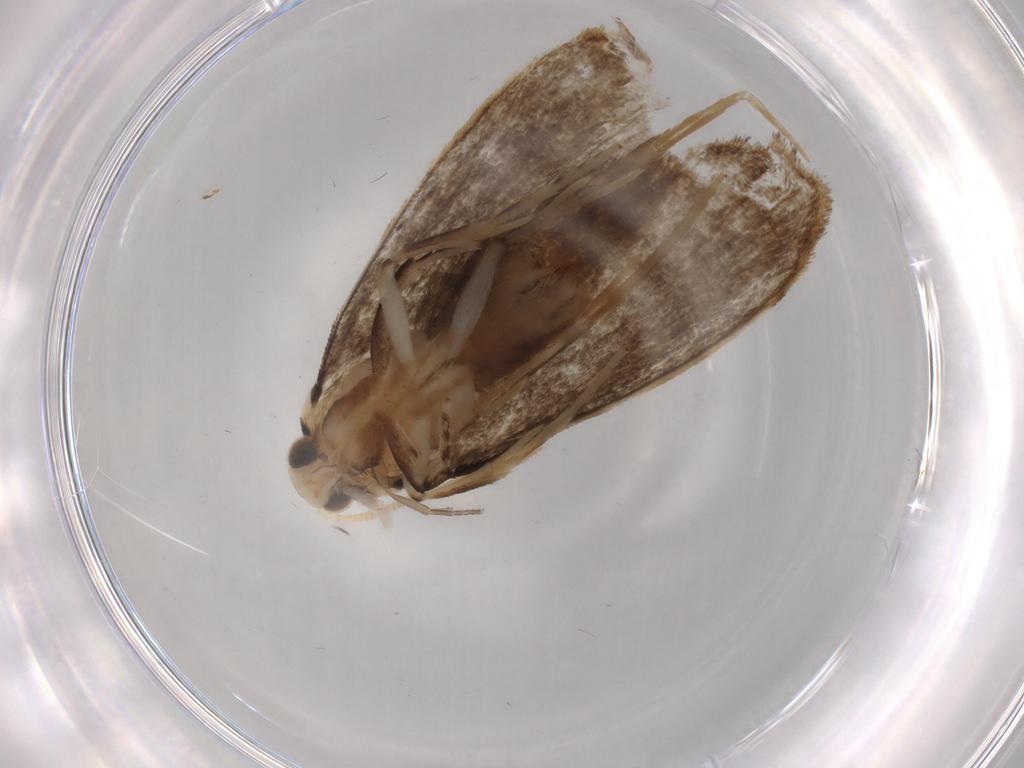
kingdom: Animalia
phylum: Arthropoda
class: Insecta
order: Lepidoptera
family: Dryadaulidae
